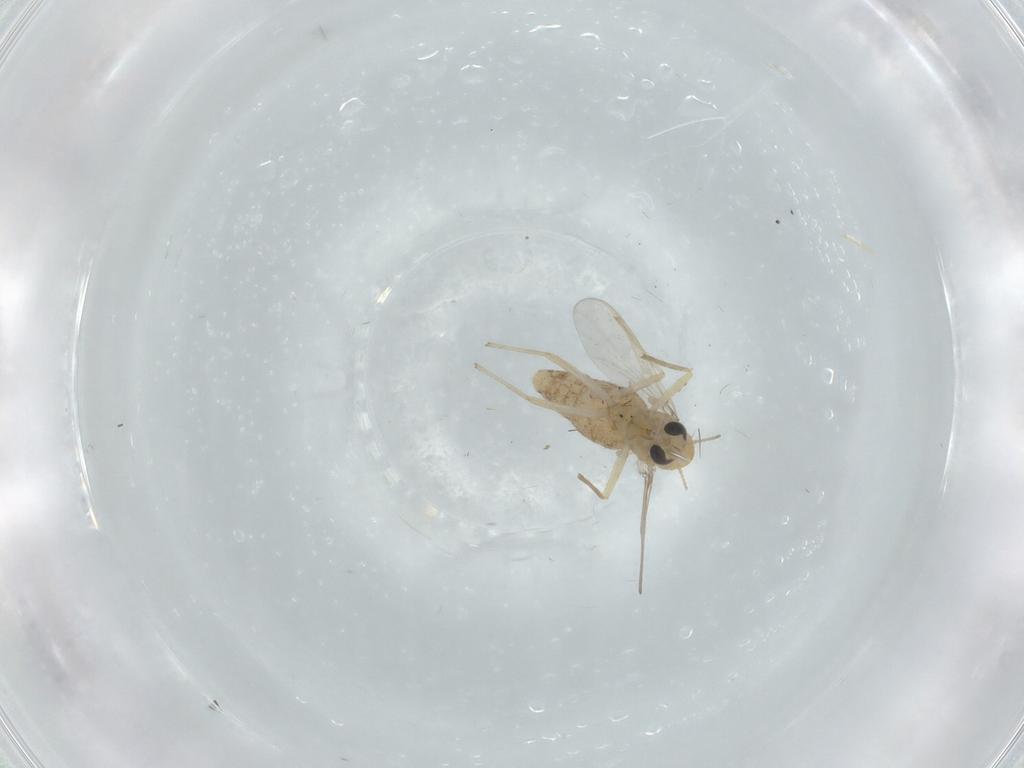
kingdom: Animalia
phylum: Arthropoda
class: Insecta
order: Diptera
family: Chironomidae
